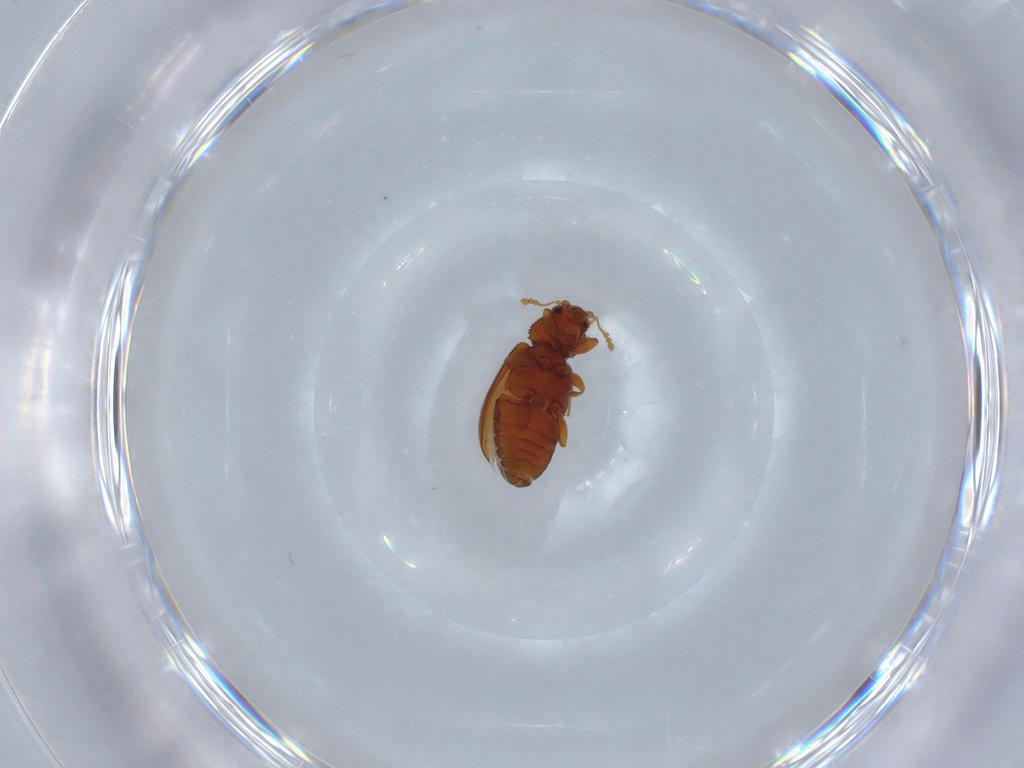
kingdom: Animalia
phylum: Arthropoda
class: Insecta
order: Coleoptera
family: Latridiidae
